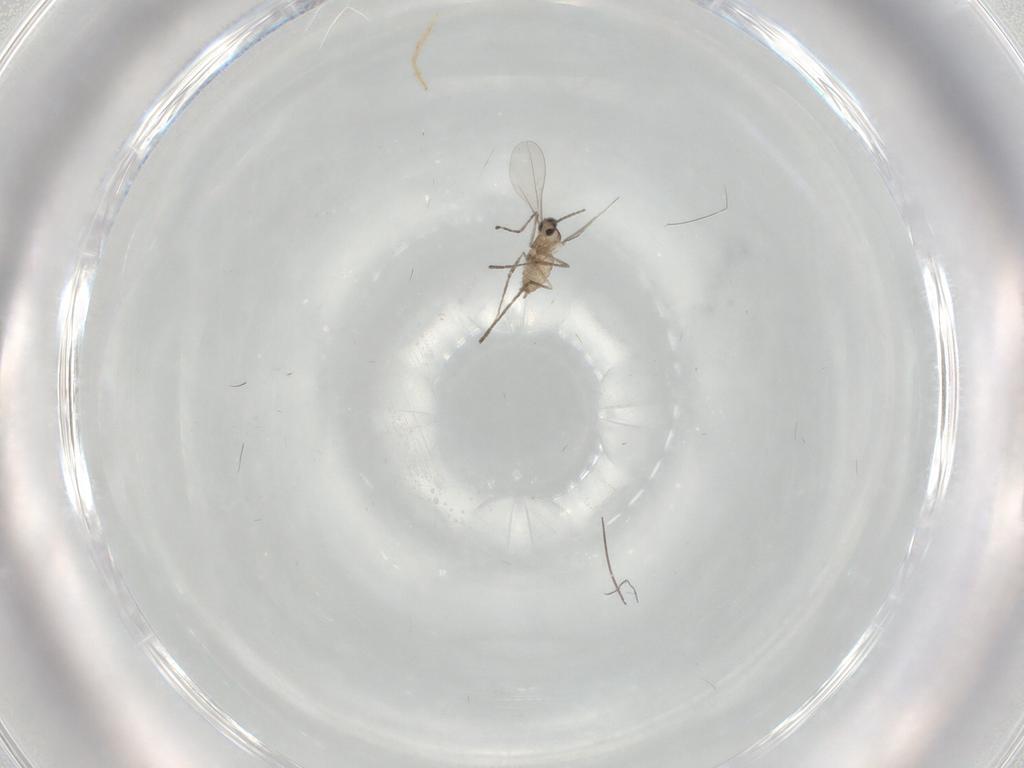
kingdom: Animalia
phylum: Arthropoda
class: Insecta
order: Diptera
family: Cecidomyiidae
